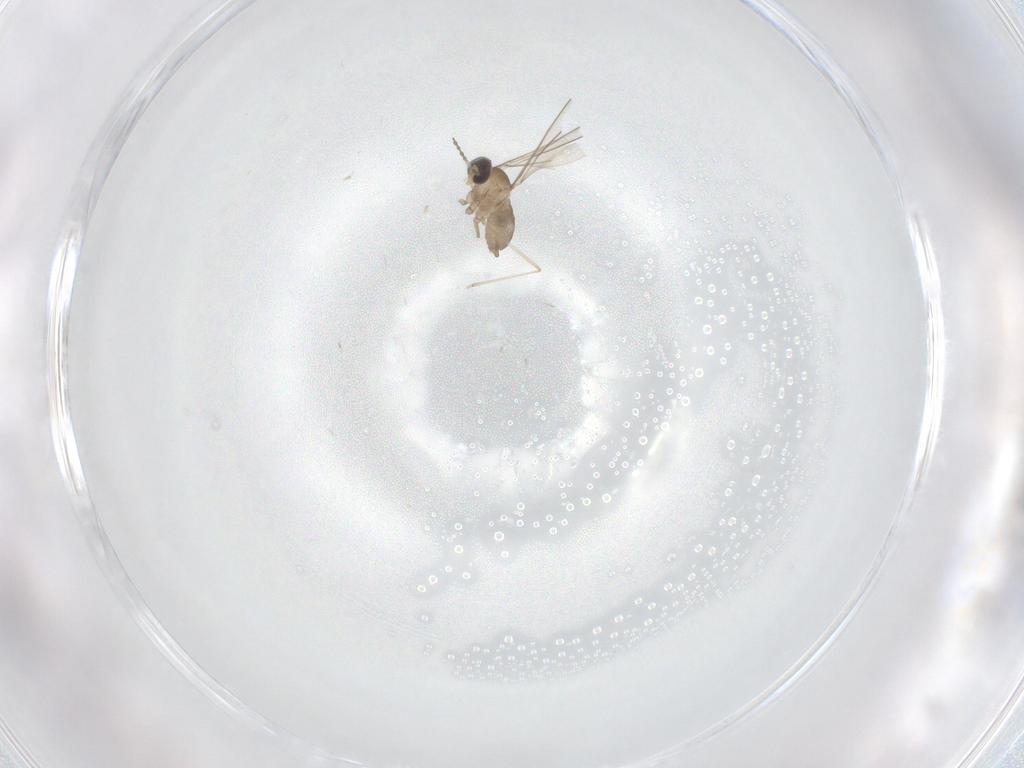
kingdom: Animalia
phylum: Arthropoda
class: Insecta
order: Diptera
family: Cecidomyiidae
